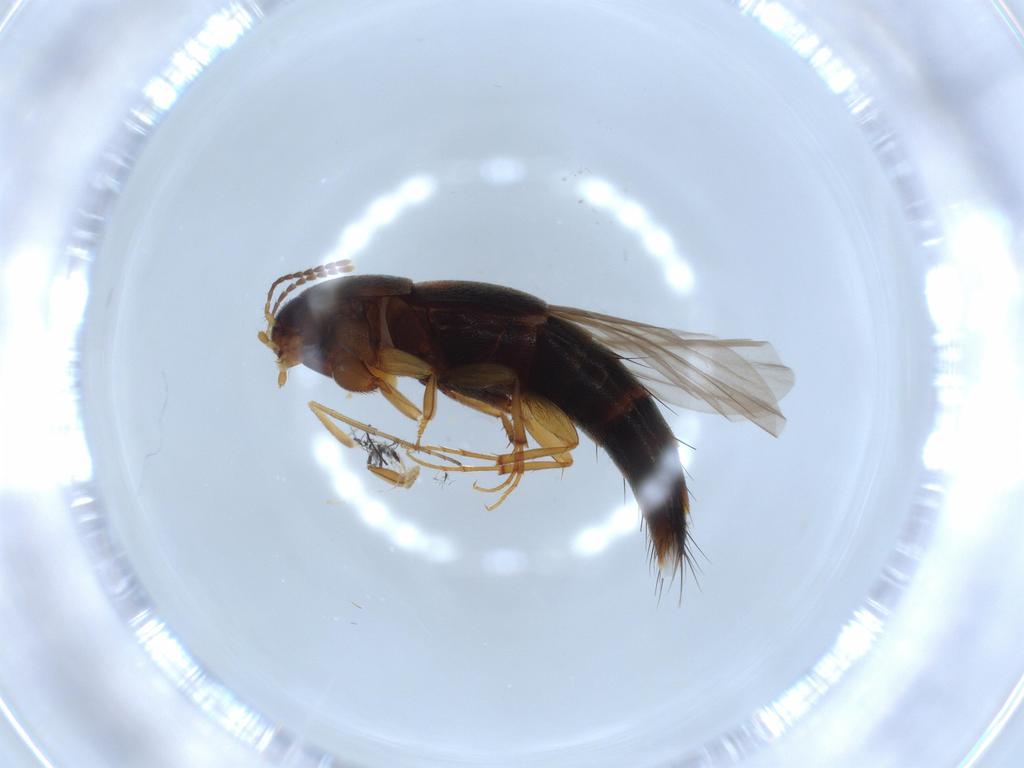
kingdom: Animalia
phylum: Arthropoda
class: Insecta
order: Coleoptera
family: Staphylinidae
